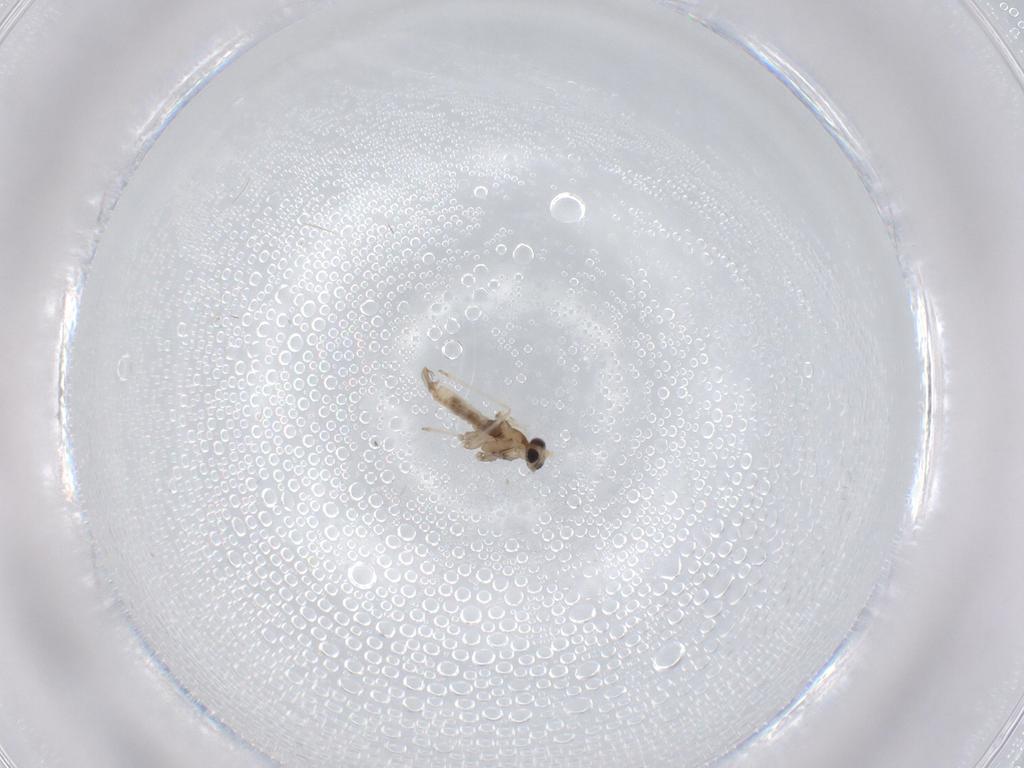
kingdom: Animalia
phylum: Arthropoda
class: Insecta
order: Diptera
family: Cecidomyiidae
